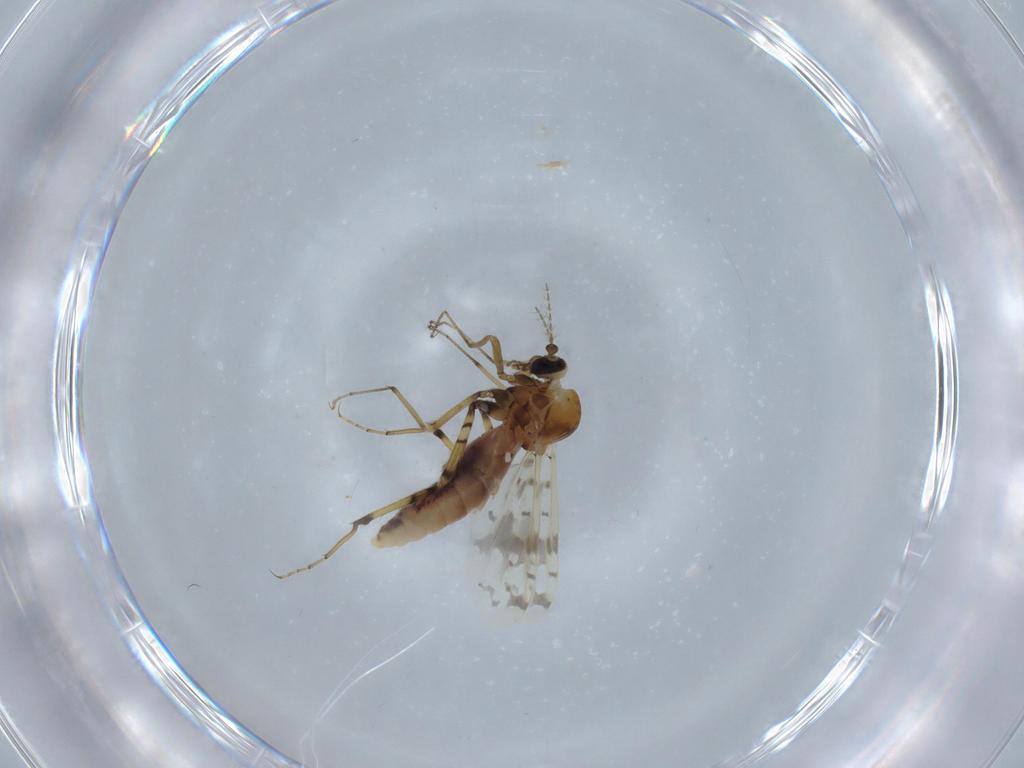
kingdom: Animalia
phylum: Arthropoda
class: Insecta
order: Diptera
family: Ceratopogonidae
